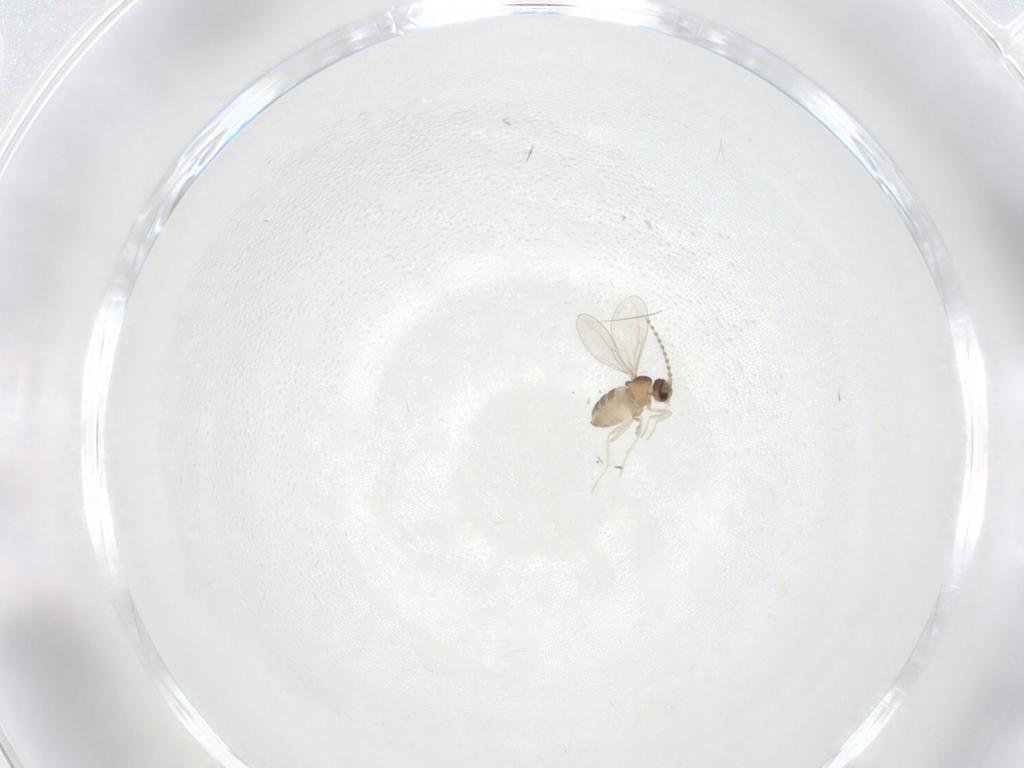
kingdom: Animalia
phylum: Arthropoda
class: Insecta
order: Diptera
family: Cecidomyiidae
